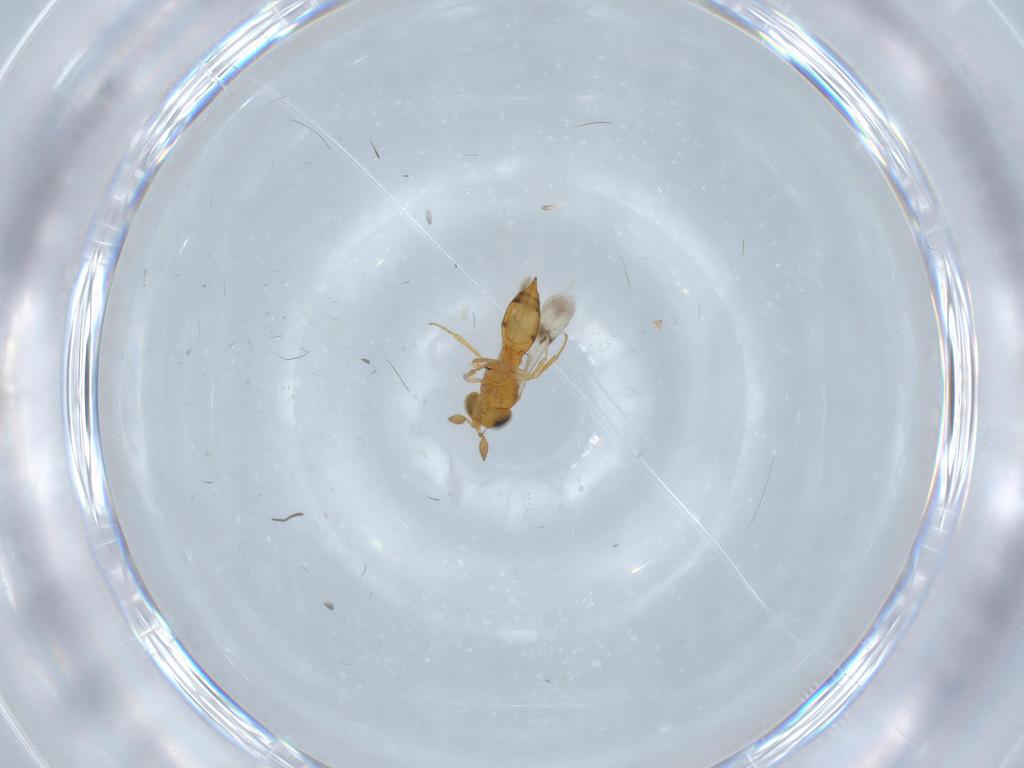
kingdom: Animalia
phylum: Arthropoda
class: Insecta
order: Hymenoptera
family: Scelionidae
